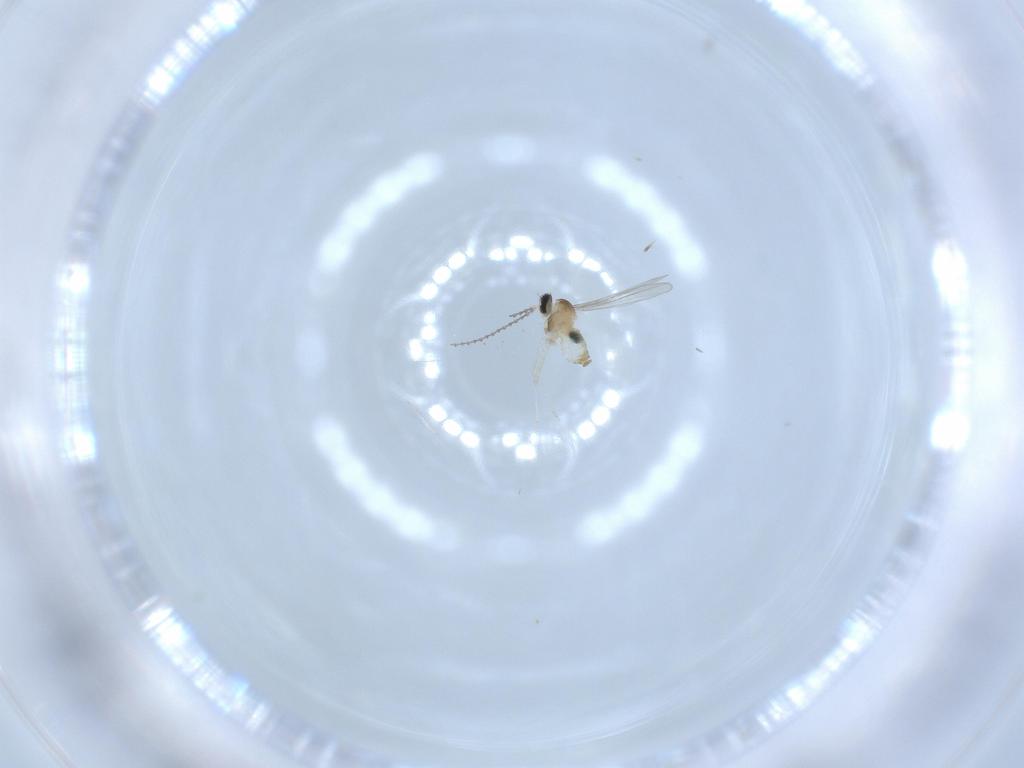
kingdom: Animalia
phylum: Arthropoda
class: Insecta
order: Diptera
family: Cecidomyiidae
